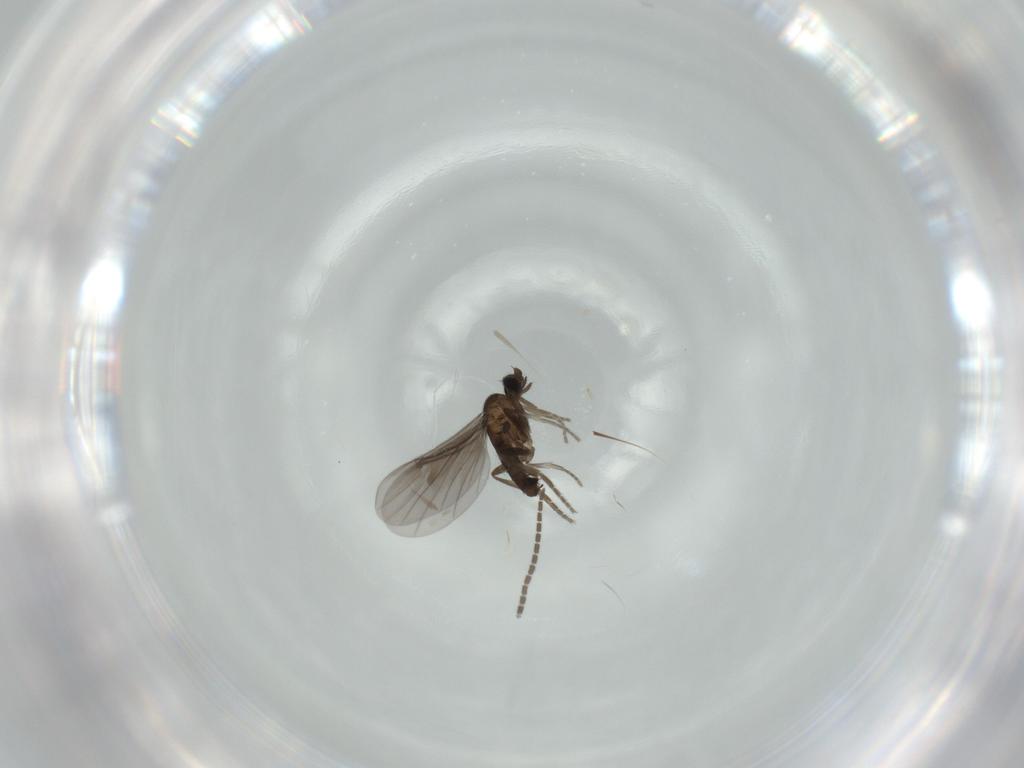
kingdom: Animalia
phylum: Arthropoda
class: Insecta
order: Diptera
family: Phoridae
